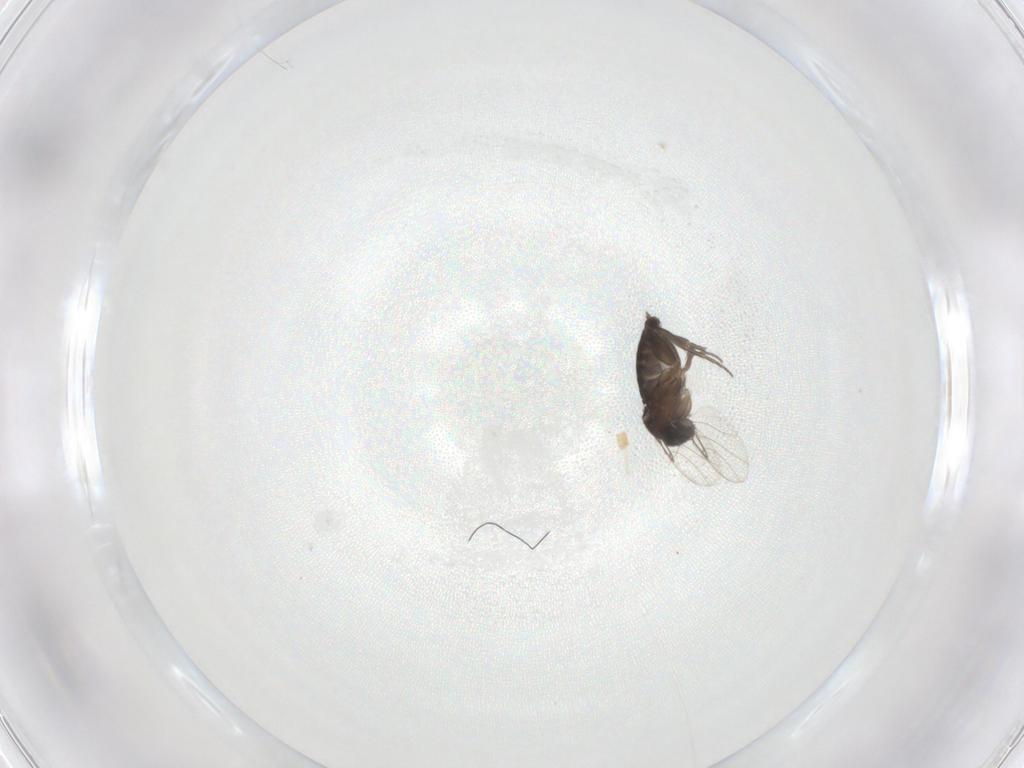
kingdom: Animalia
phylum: Arthropoda
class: Insecta
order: Diptera
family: Phoridae
